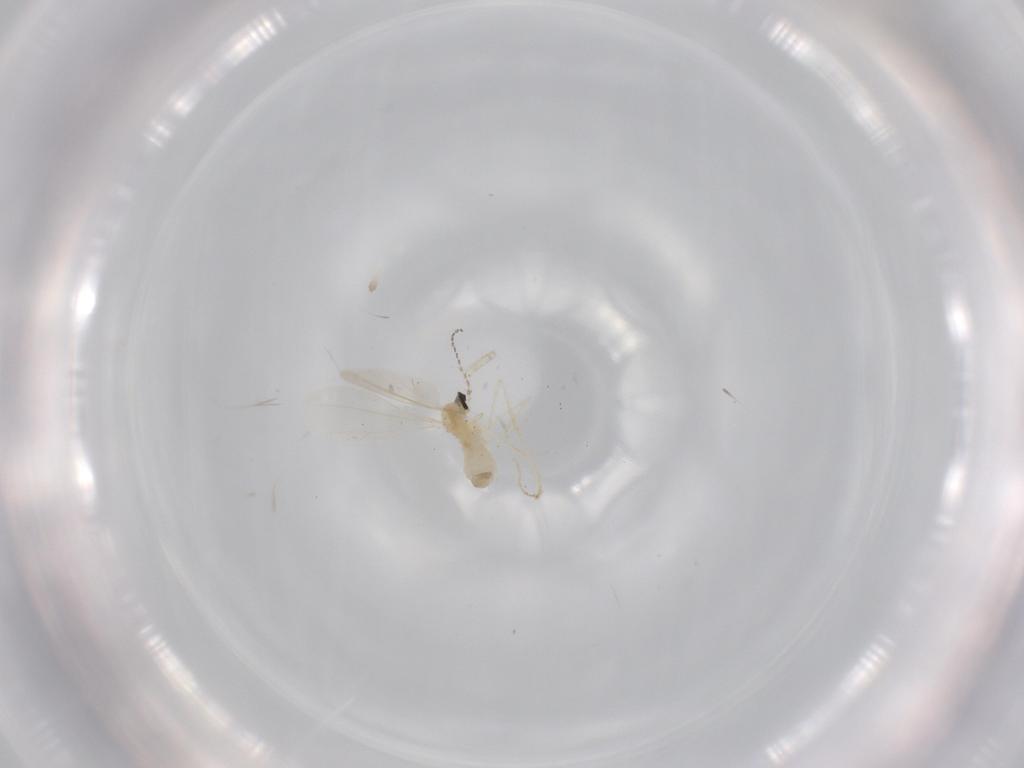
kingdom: Animalia
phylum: Arthropoda
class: Insecta
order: Diptera
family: Cecidomyiidae
